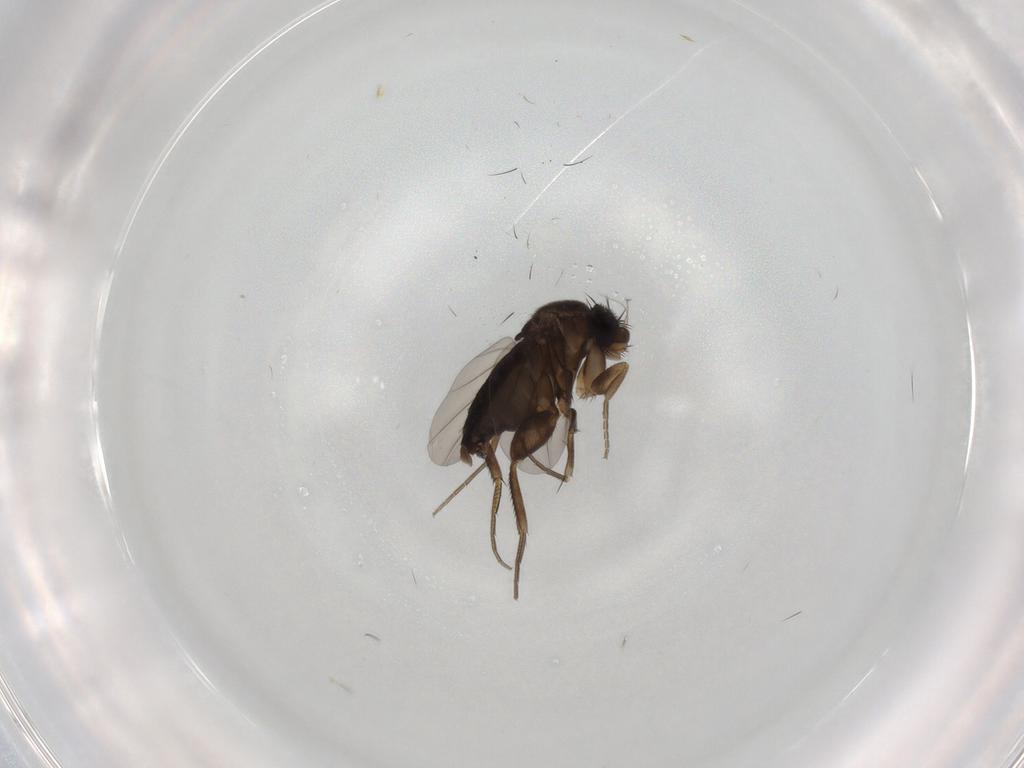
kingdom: Animalia
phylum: Arthropoda
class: Insecta
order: Diptera
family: Phoridae
